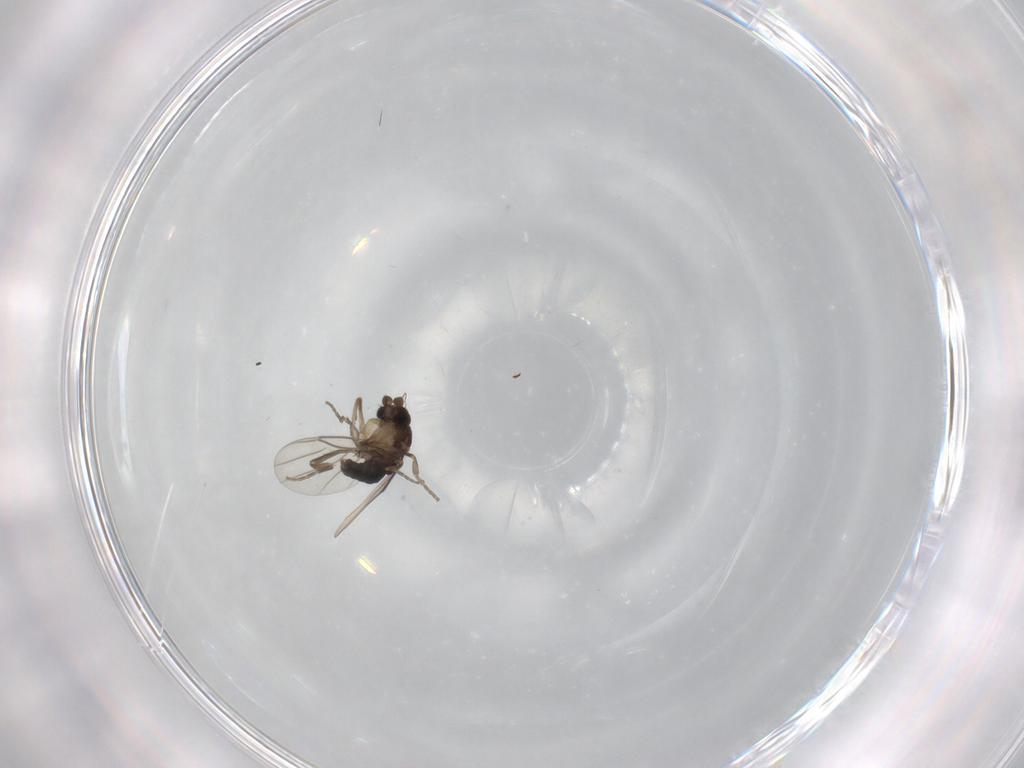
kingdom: Animalia
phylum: Arthropoda
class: Insecta
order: Diptera
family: Phoridae
